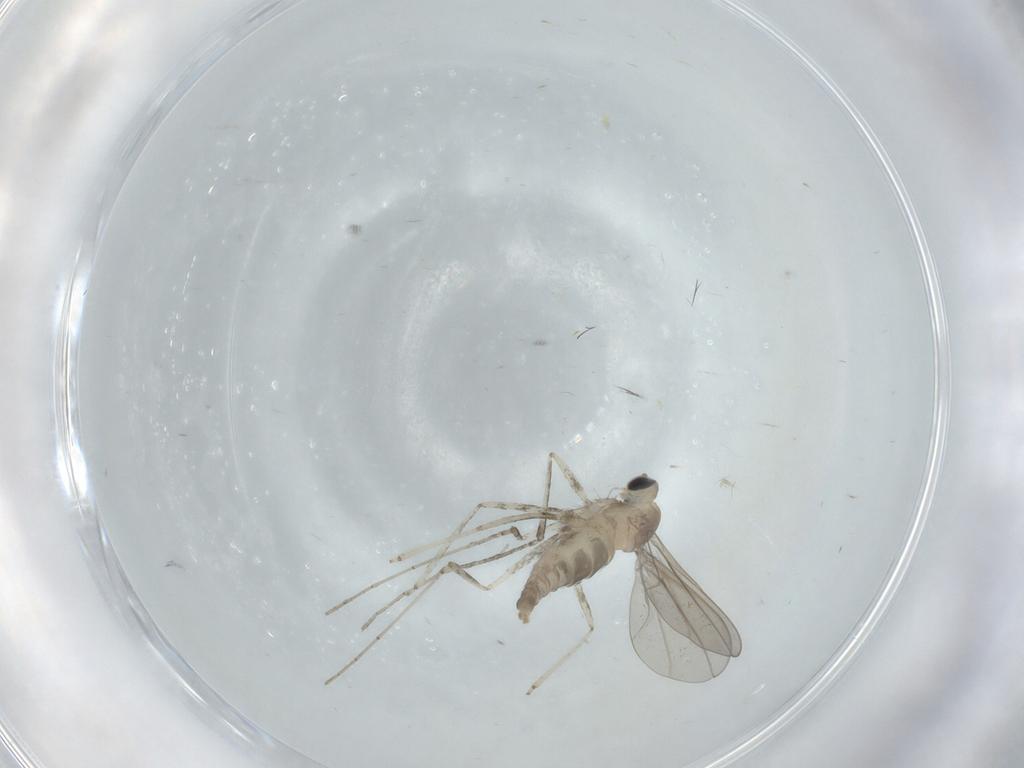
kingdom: Animalia
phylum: Arthropoda
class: Insecta
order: Diptera
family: Cecidomyiidae
